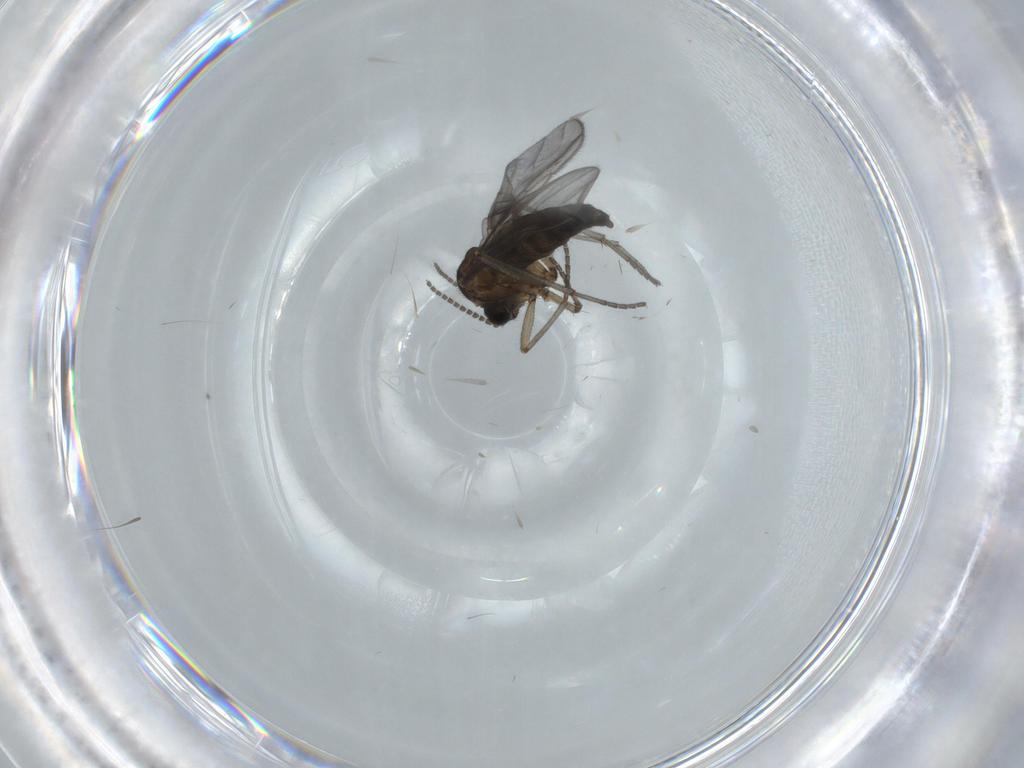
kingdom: Animalia
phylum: Arthropoda
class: Insecta
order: Diptera
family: Sciaridae
